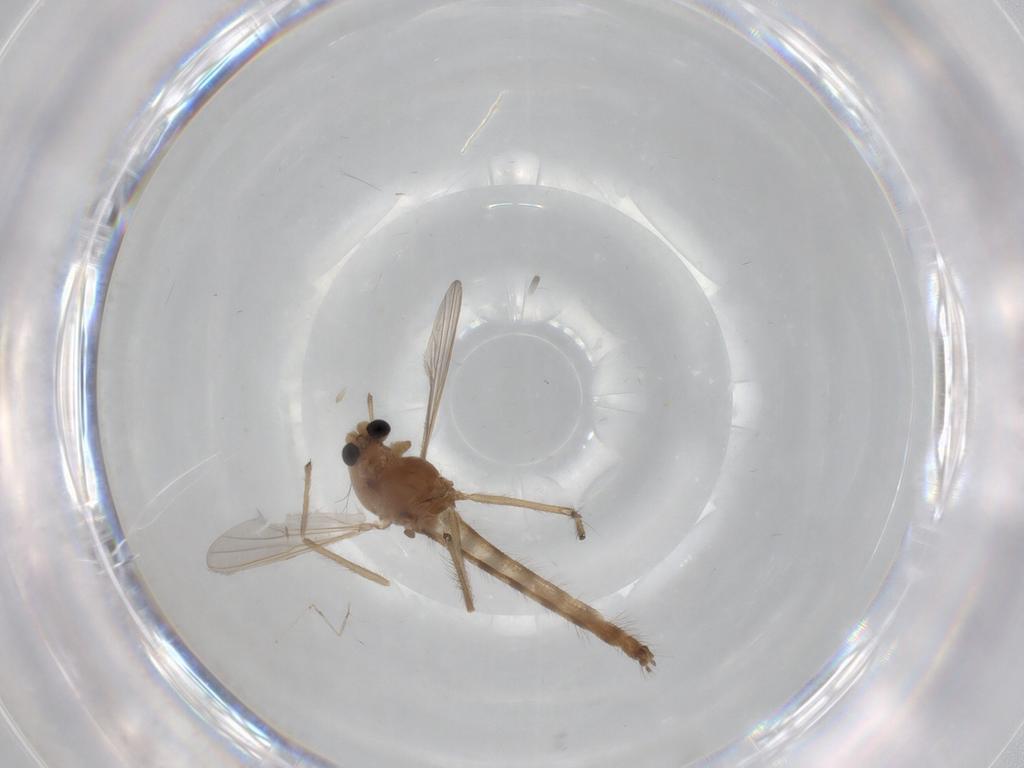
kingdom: Animalia
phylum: Arthropoda
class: Insecta
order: Diptera
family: Chironomidae
